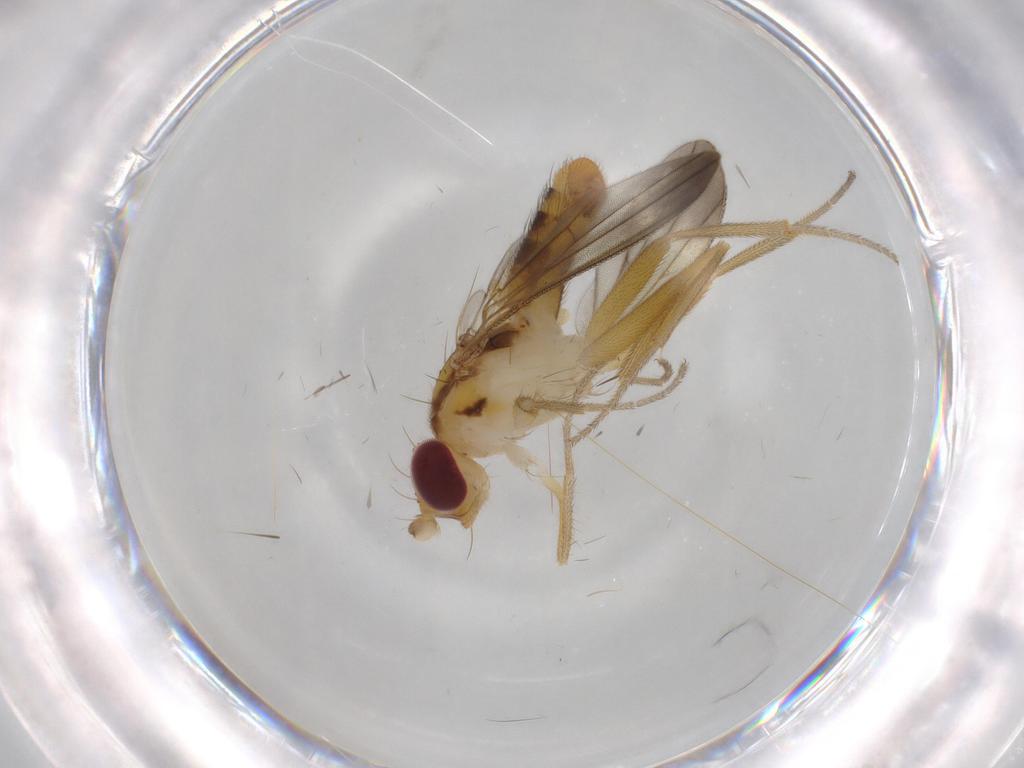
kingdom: Animalia
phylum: Arthropoda
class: Insecta
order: Diptera
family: Clusiidae
